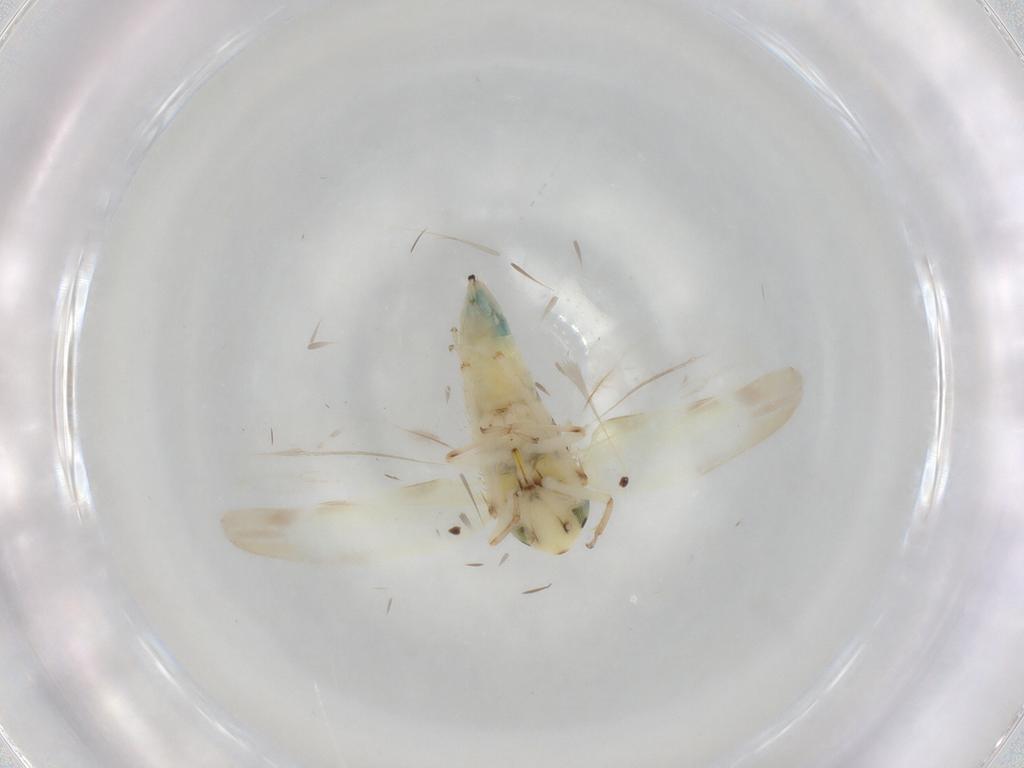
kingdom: Animalia
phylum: Arthropoda
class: Insecta
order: Hemiptera
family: Cicadellidae
